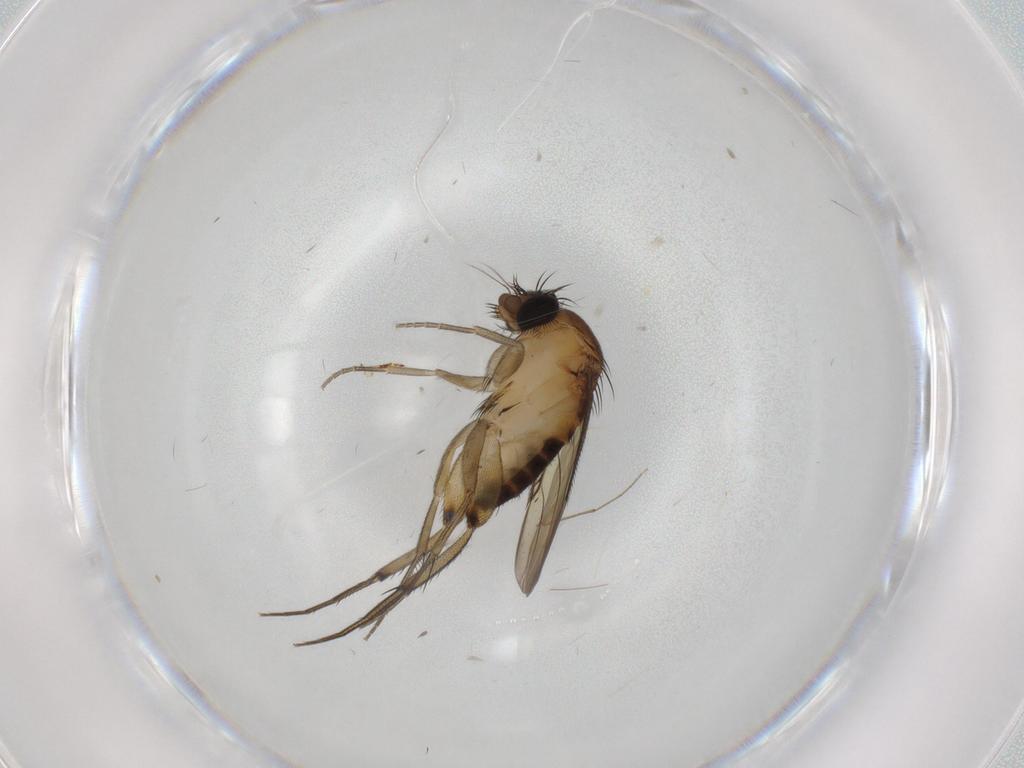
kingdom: Animalia
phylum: Arthropoda
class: Insecta
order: Diptera
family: Phoridae
